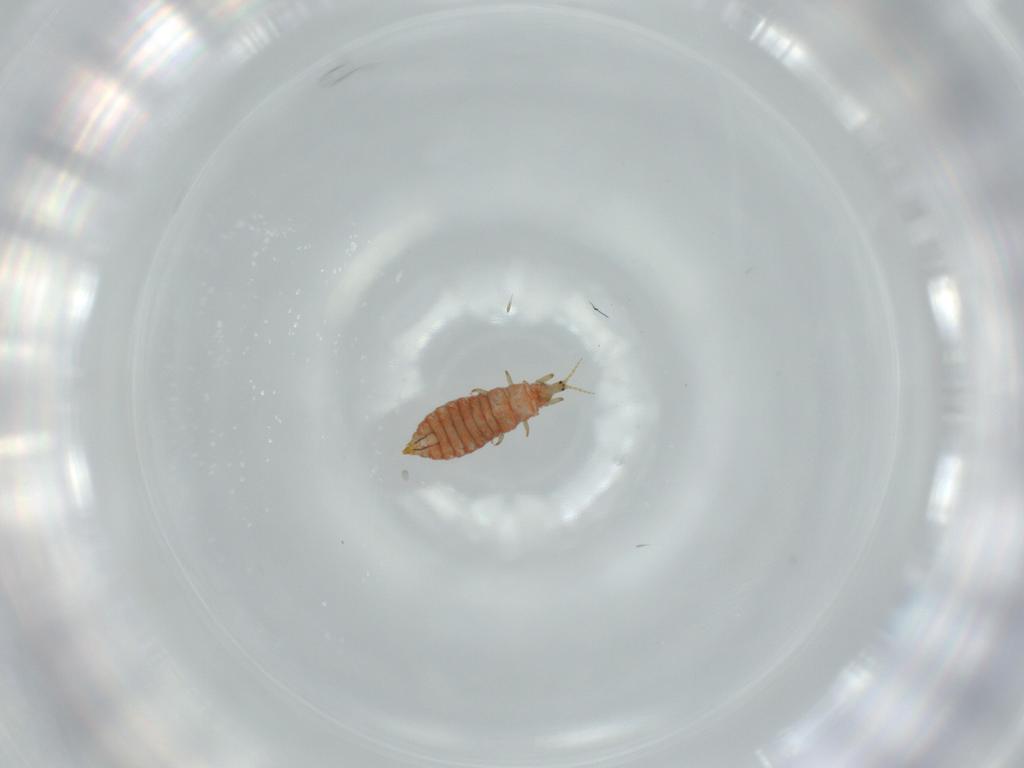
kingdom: Animalia
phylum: Arthropoda
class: Insecta
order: Thysanoptera
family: Phlaeothripidae
